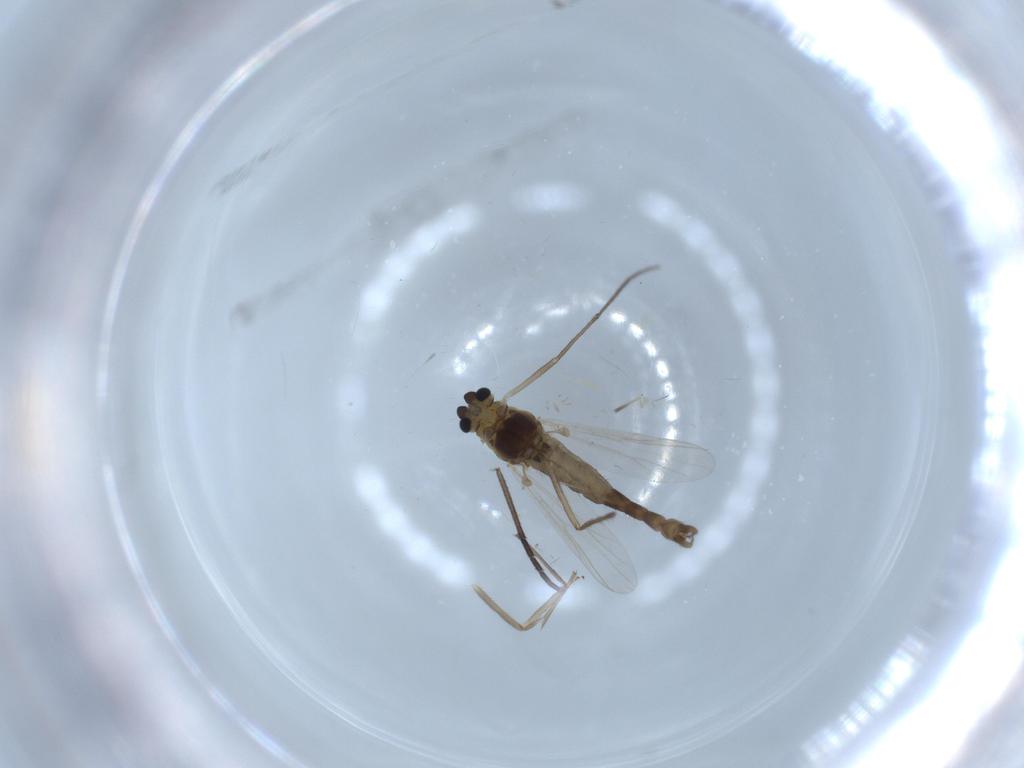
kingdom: Animalia
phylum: Arthropoda
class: Insecta
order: Diptera
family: Chironomidae
